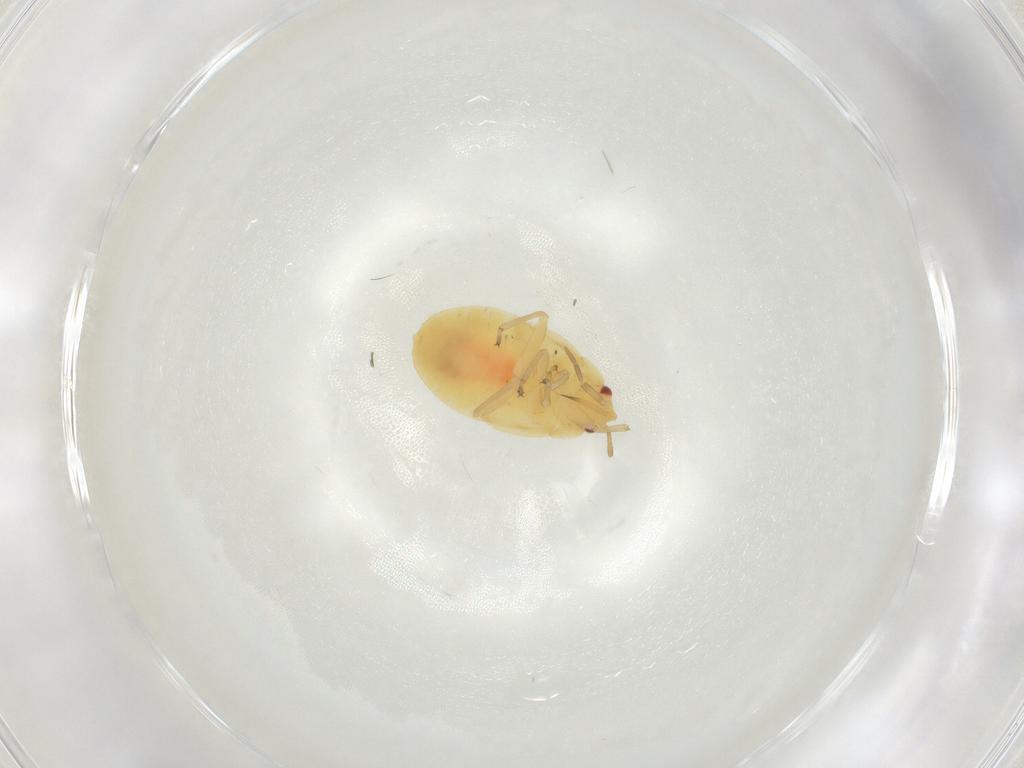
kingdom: Animalia
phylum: Arthropoda
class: Insecta
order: Hemiptera
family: Anthocoridae
